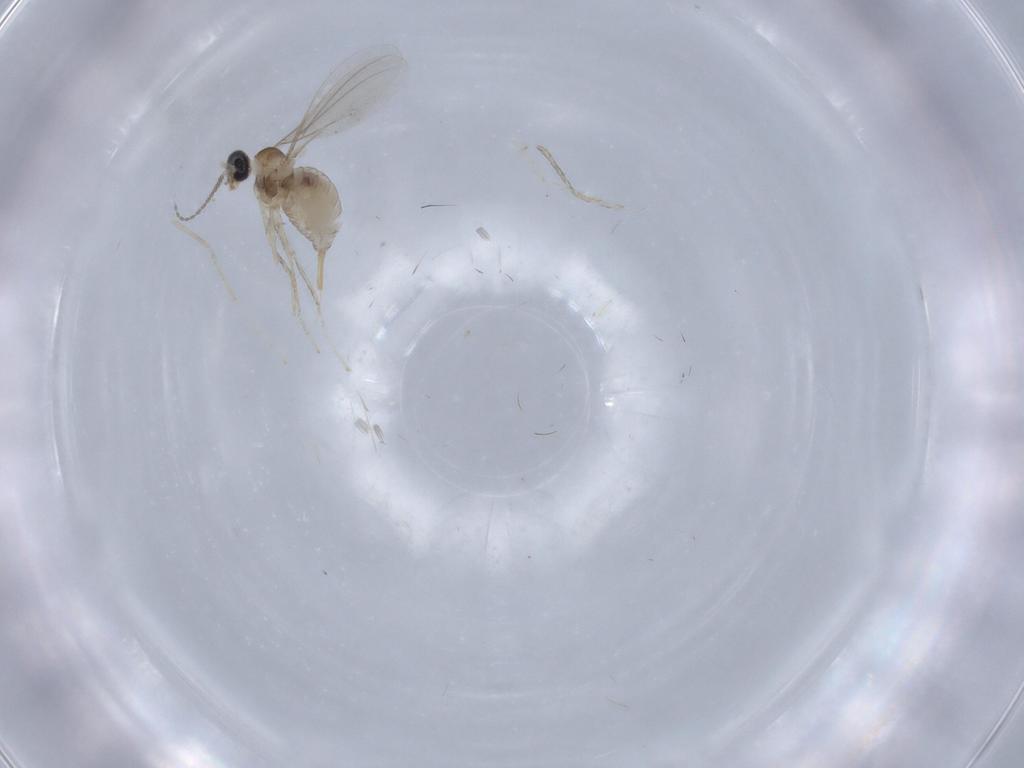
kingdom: Animalia
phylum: Arthropoda
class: Insecta
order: Diptera
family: Cecidomyiidae
